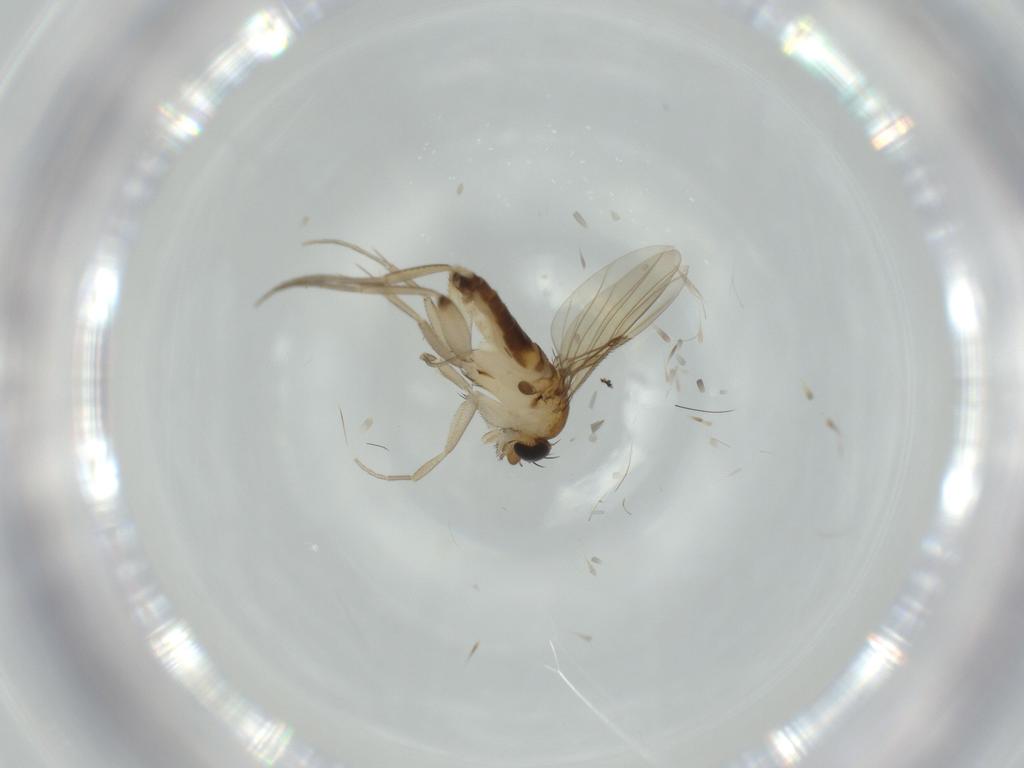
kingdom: Animalia
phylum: Arthropoda
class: Insecta
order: Diptera
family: Phoridae
